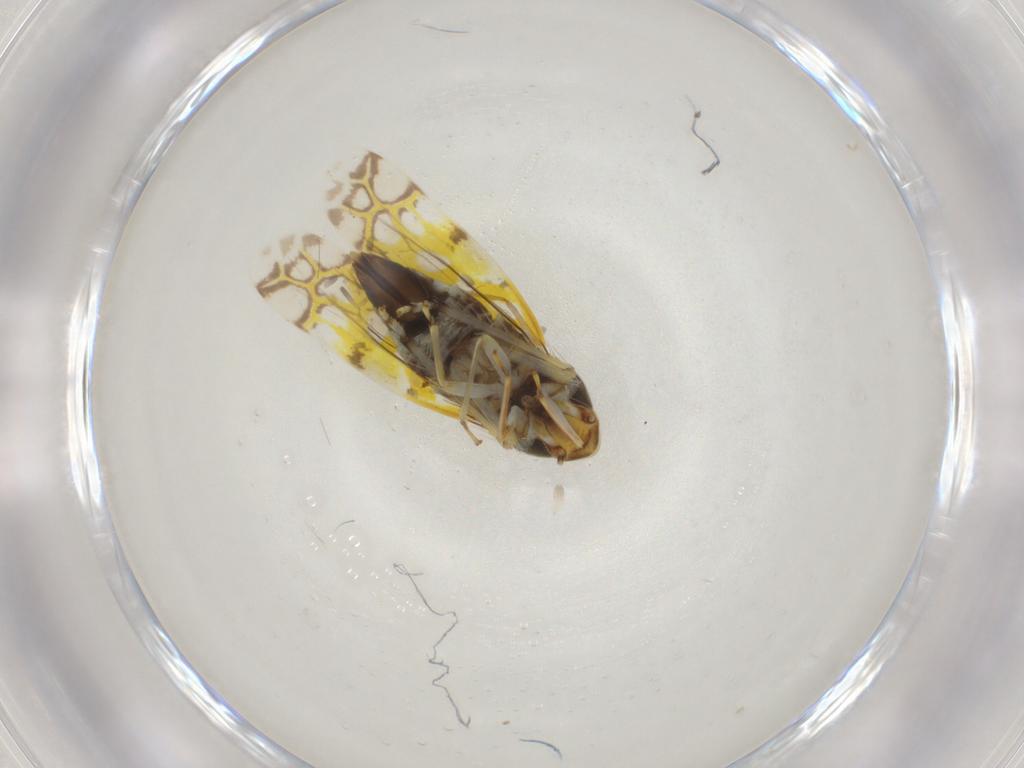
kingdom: Animalia
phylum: Arthropoda
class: Insecta
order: Hemiptera
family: Cicadellidae
